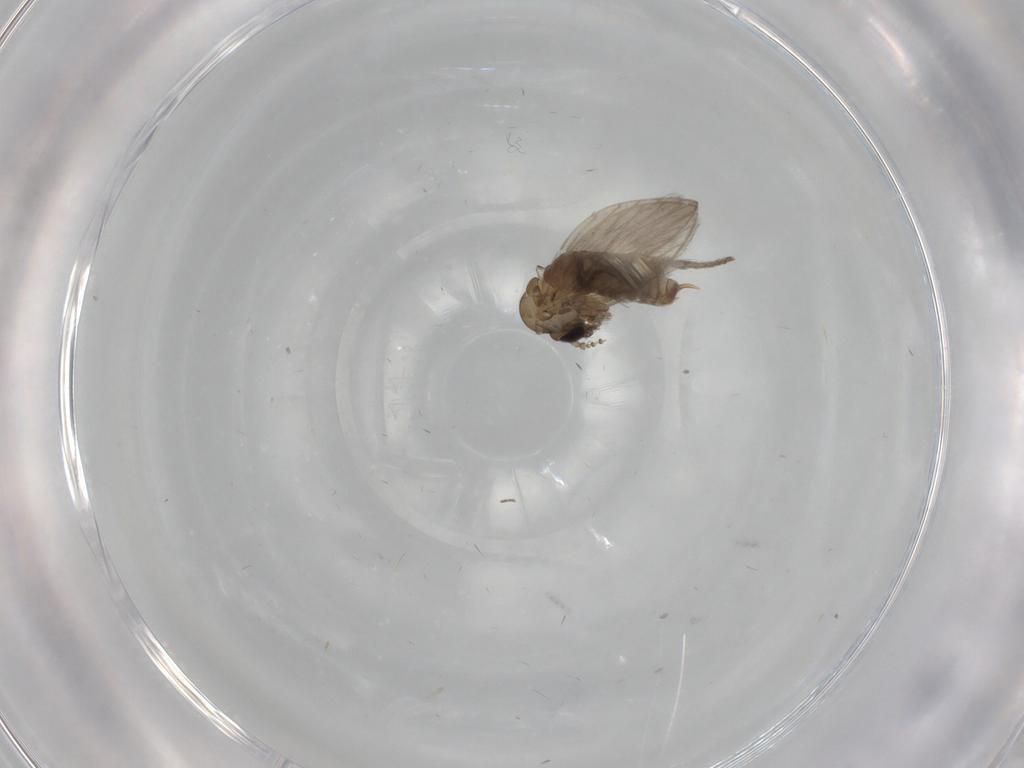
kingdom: Animalia
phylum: Arthropoda
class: Insecta
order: Diptera
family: Psychodidae
